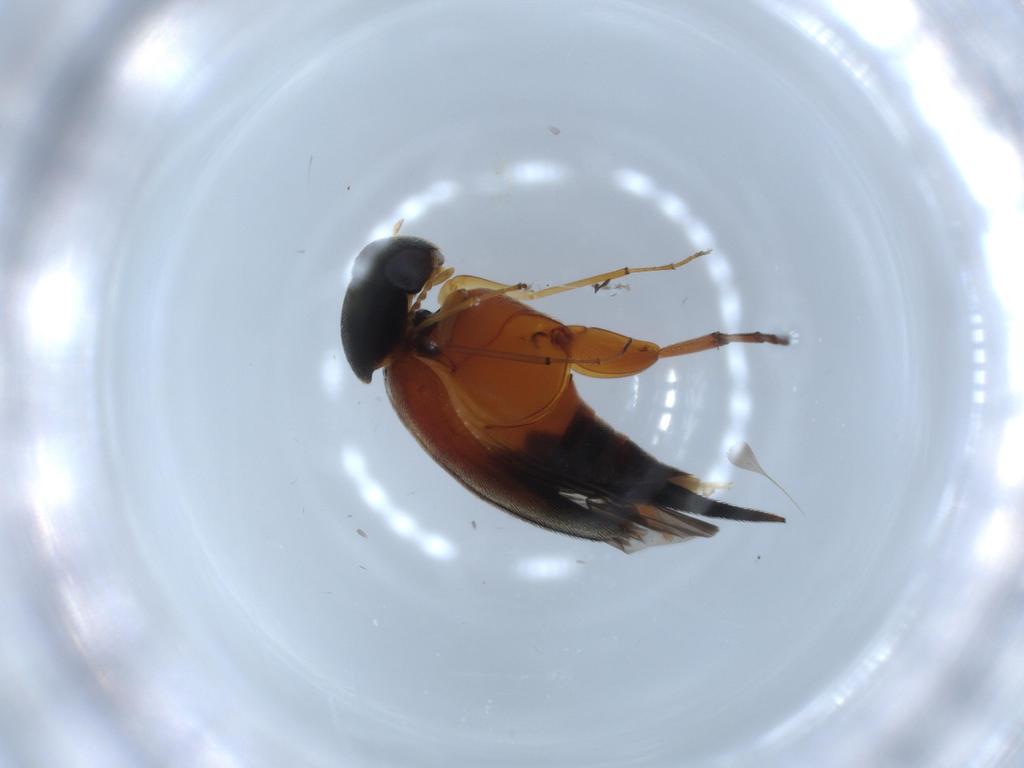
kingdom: Animalia
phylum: Arthropoda
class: Insecta
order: Coleoptera
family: Mordellidae
